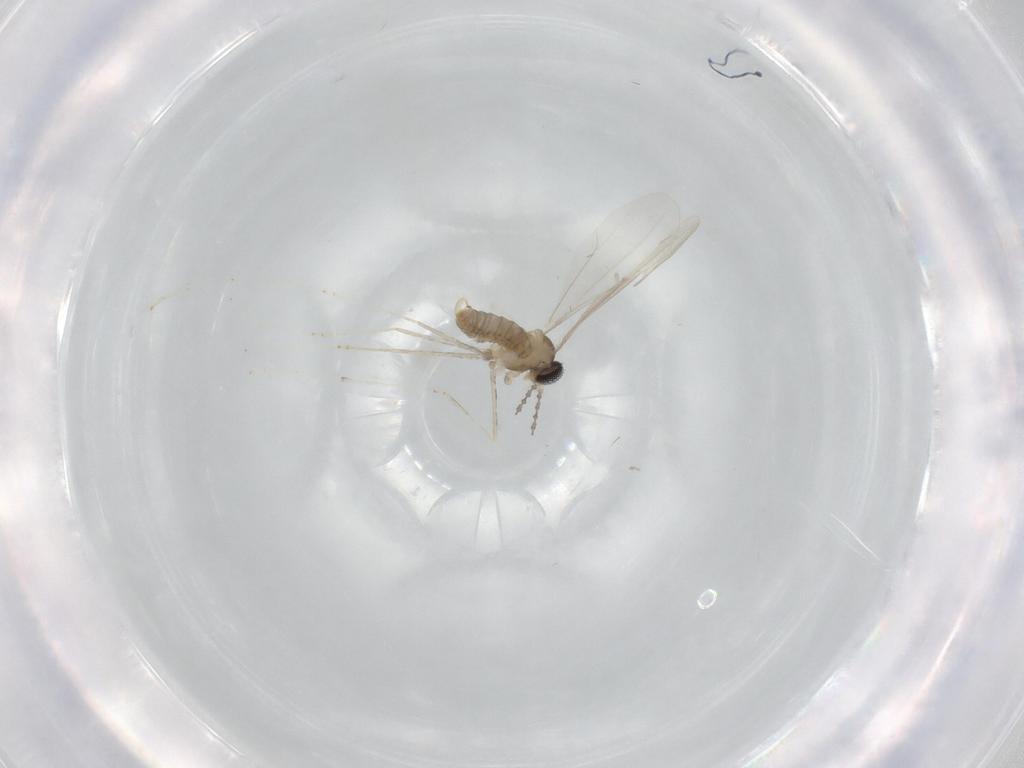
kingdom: Animalia
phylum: Arthropoda
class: Insecta
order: Diptera
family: Cecidomyiidae
